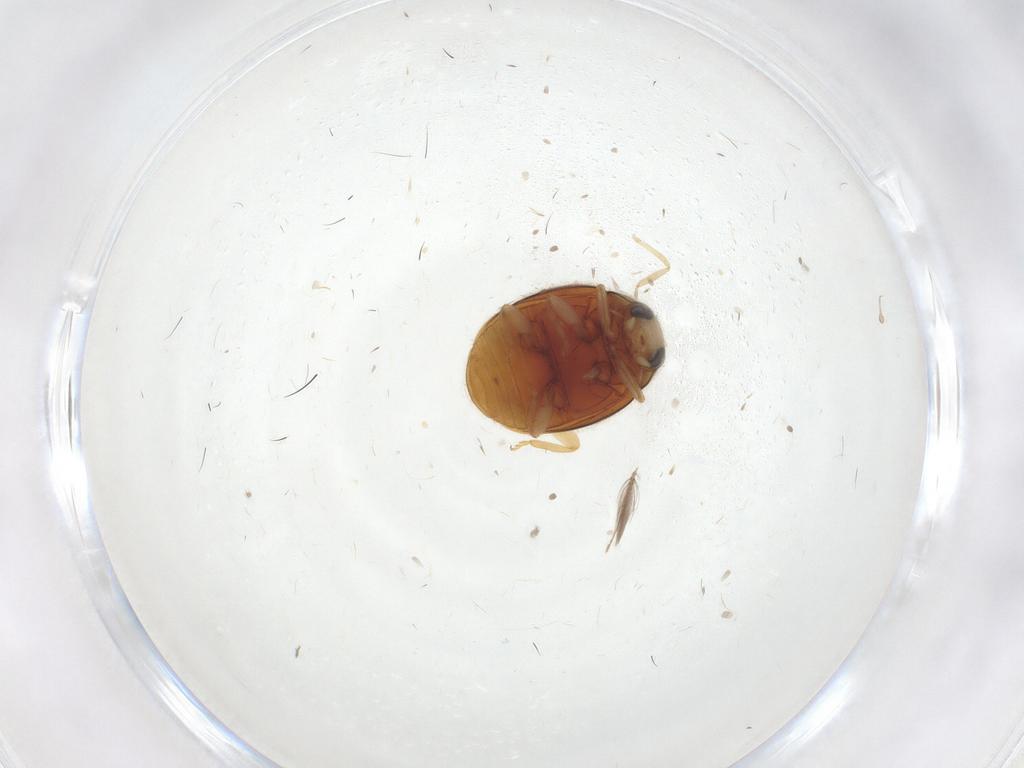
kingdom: Animalia
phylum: Arthropoda
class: Insecta
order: Coleoptera
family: Coccinellidae
